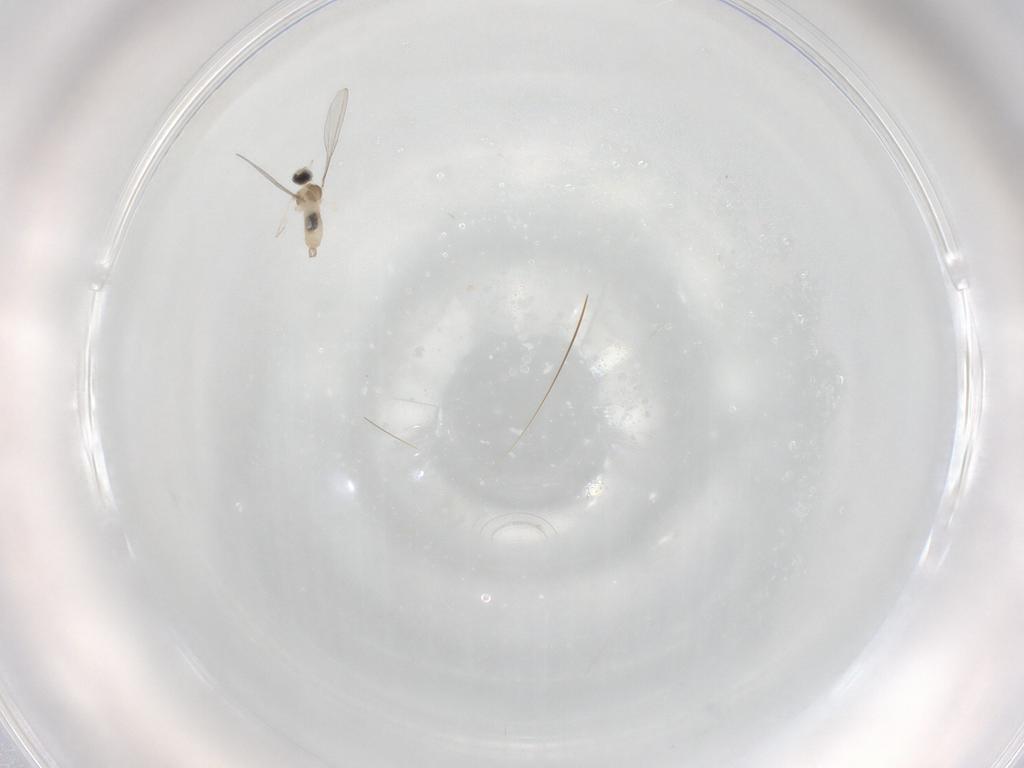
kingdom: Animalia
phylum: Arthropoda
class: Insecta
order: Diptera
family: Cecidomyiidae
